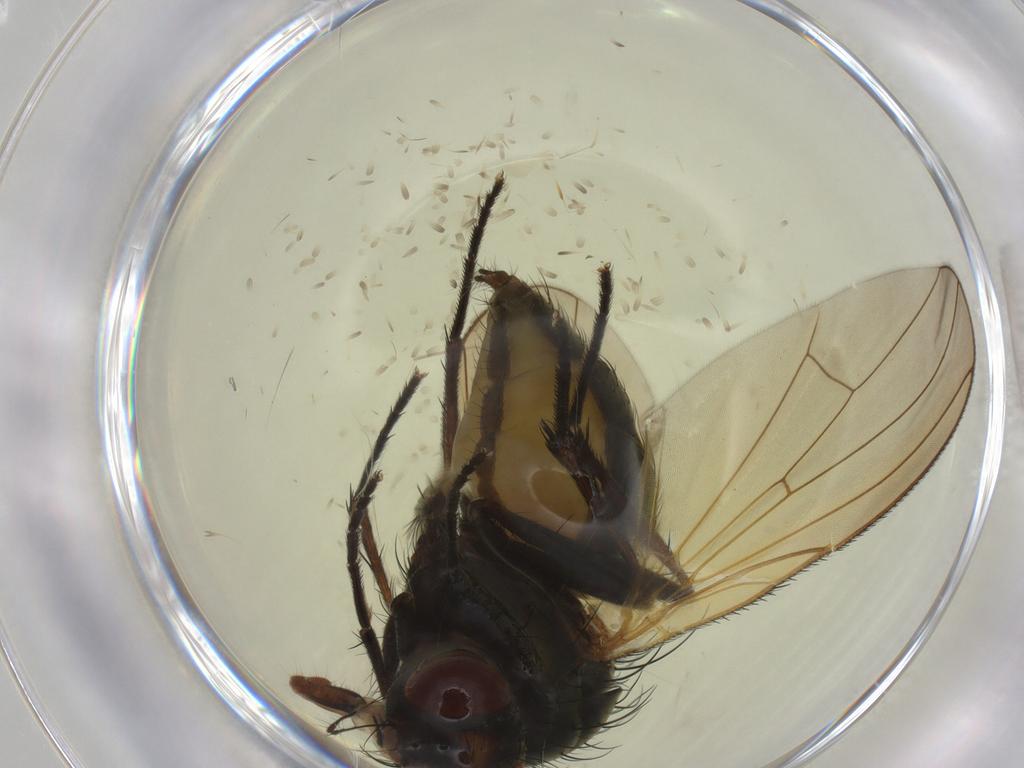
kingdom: Animalia
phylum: Arthropoda
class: Insecta
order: Diptera
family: Anthomyiidae
